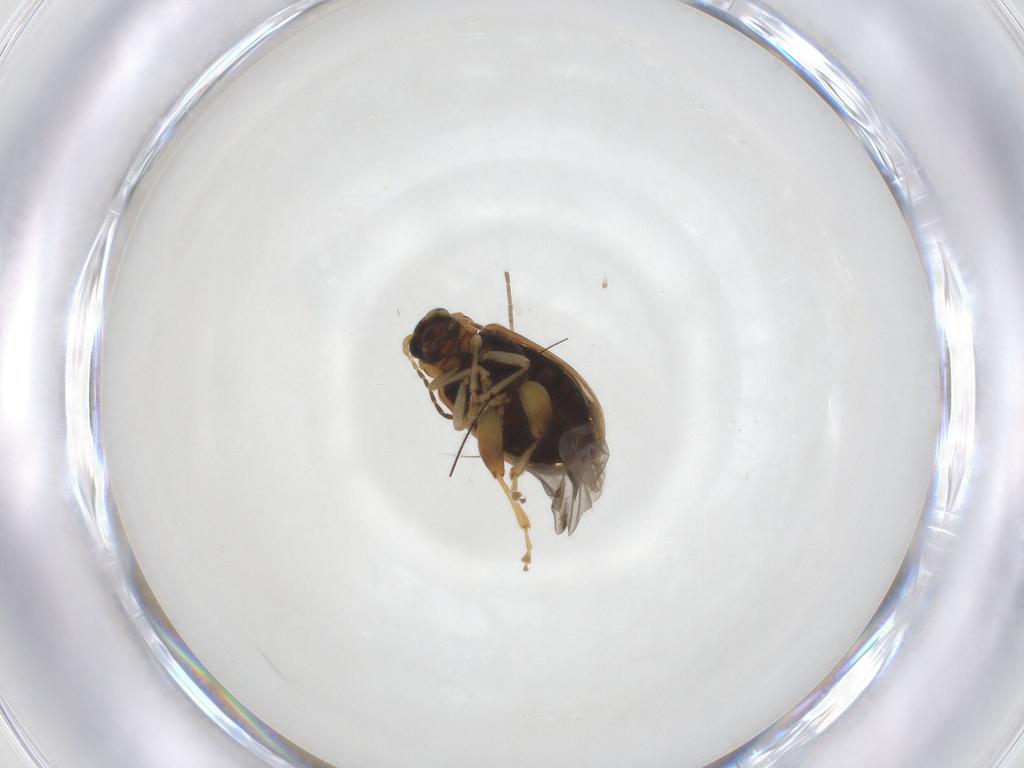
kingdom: Animalia
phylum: Arthropoda
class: Insecta
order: Coleoptera
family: Chrysomelidae
